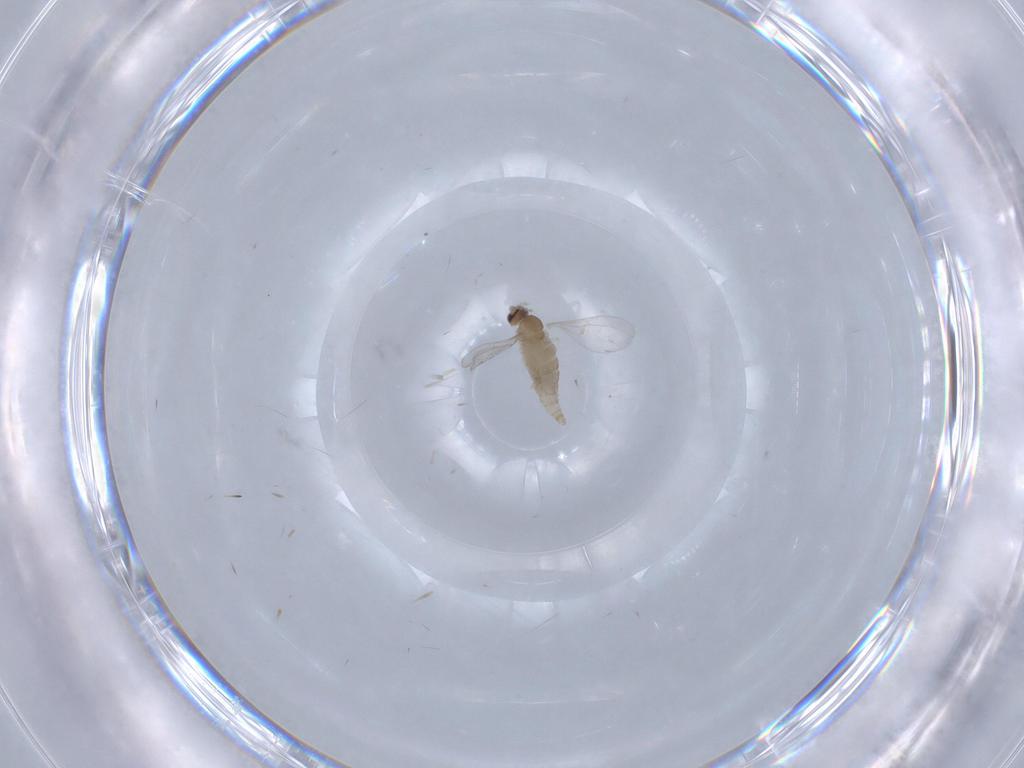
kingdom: Animalia
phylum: Arthropoda
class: Insecta
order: Diptera
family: Cecidomyiidae
